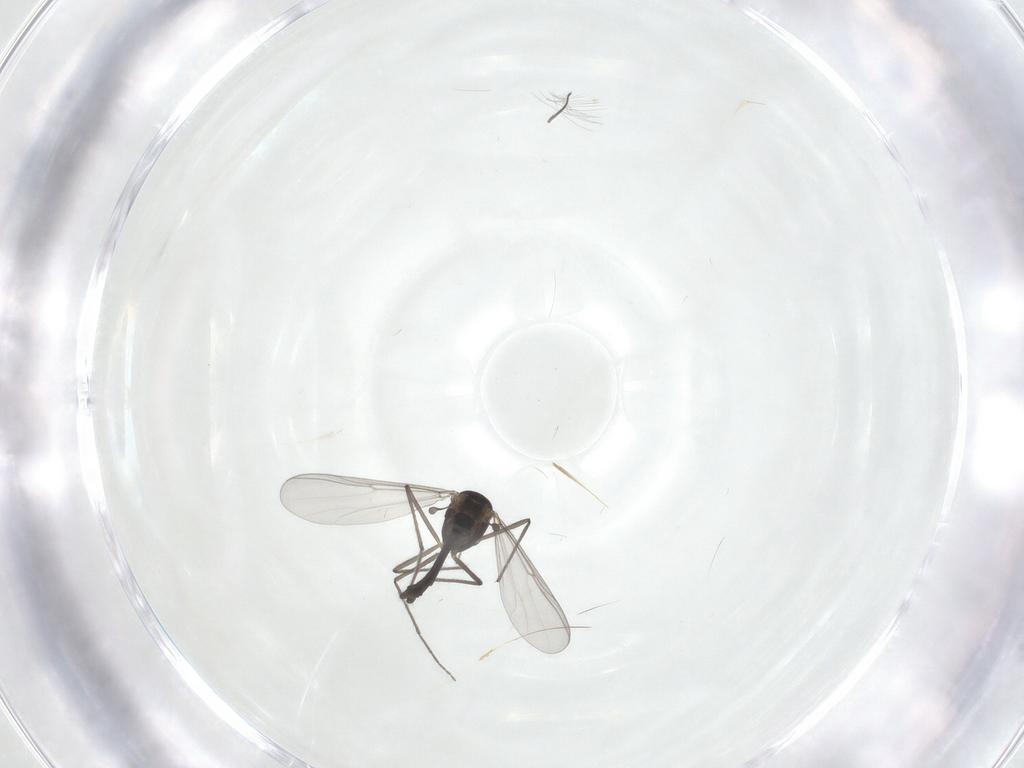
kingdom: Animalia
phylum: Arthropoda
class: Insecta
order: Diptera
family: Chironomidae
